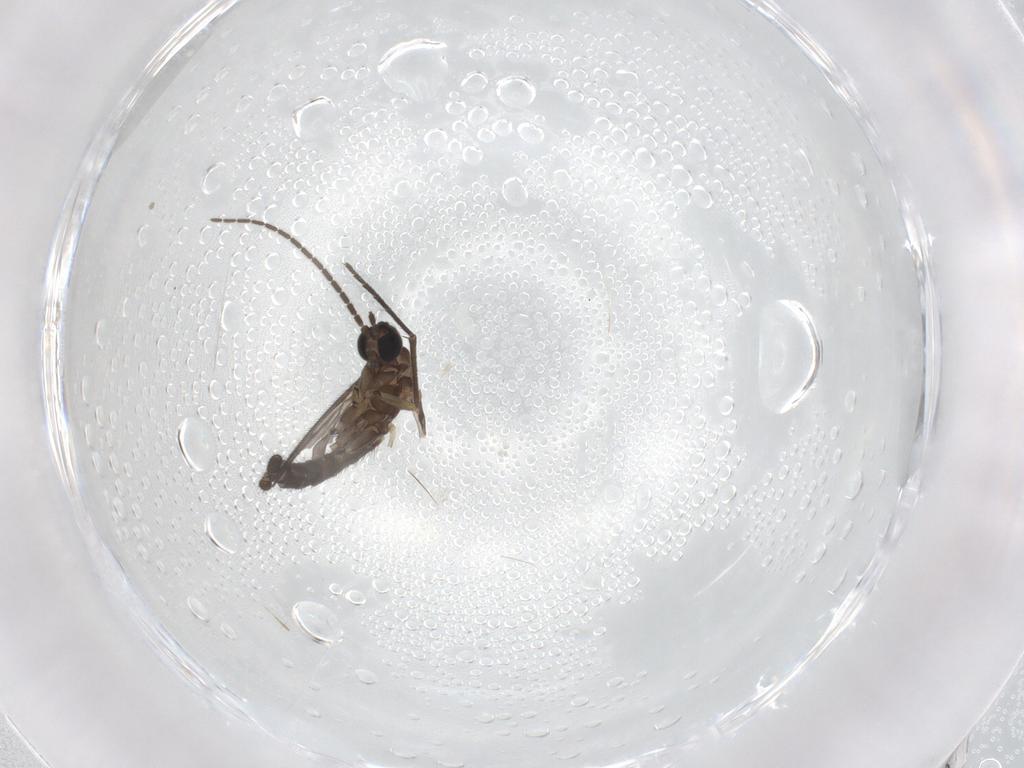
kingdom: Animalia
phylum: Arthropoda
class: Insecta
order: Diptera
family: Sciaridae
